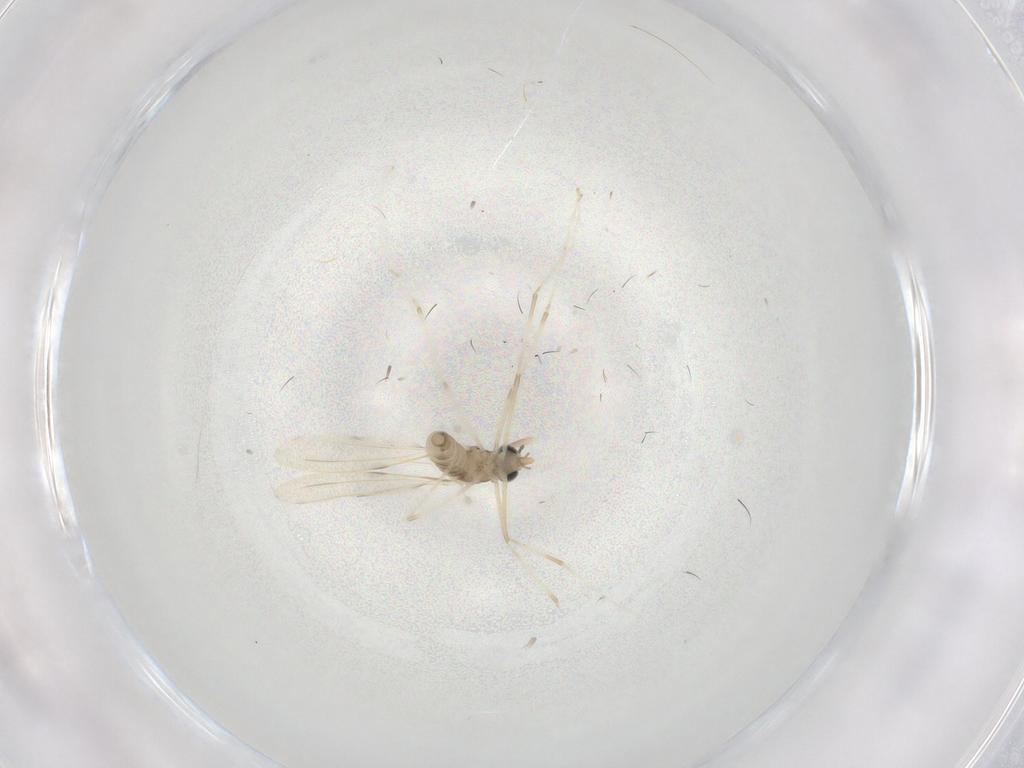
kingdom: Animalia
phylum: Arthropoda
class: Insecta
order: Diptera
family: Cecidomyiidae
